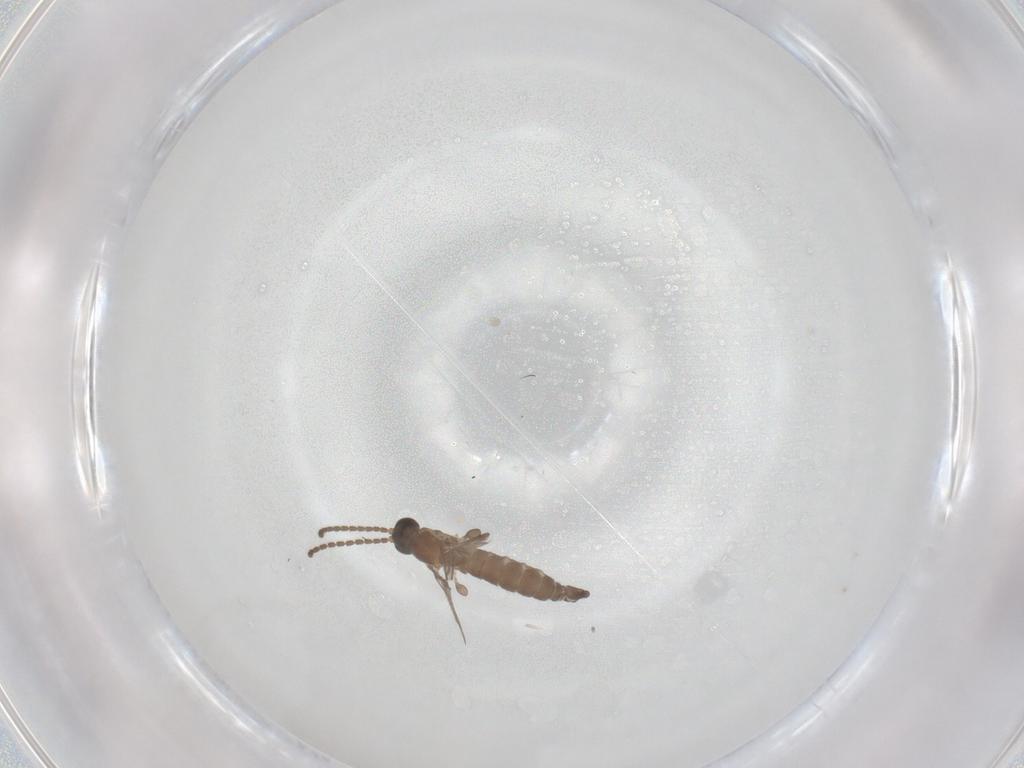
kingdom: Animalia
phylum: Arthropoda
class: Insecta
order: Diptera
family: Sciaridae
